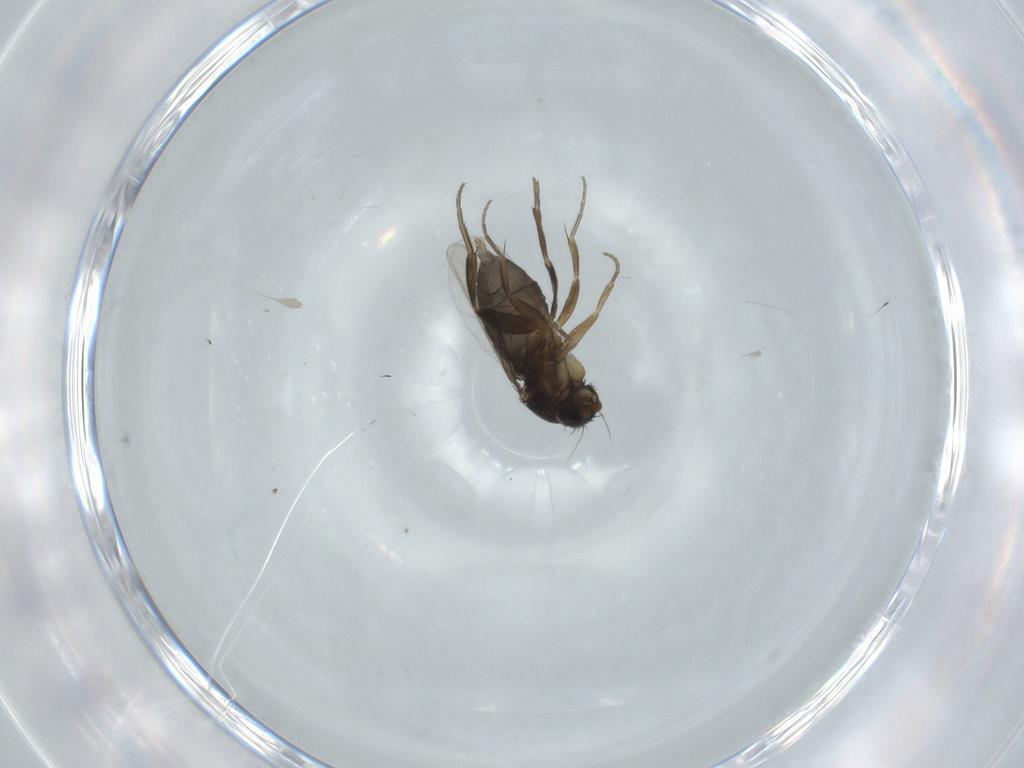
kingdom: Animalia
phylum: Arthropoda
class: Insecta
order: Diptera
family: Phoridae
